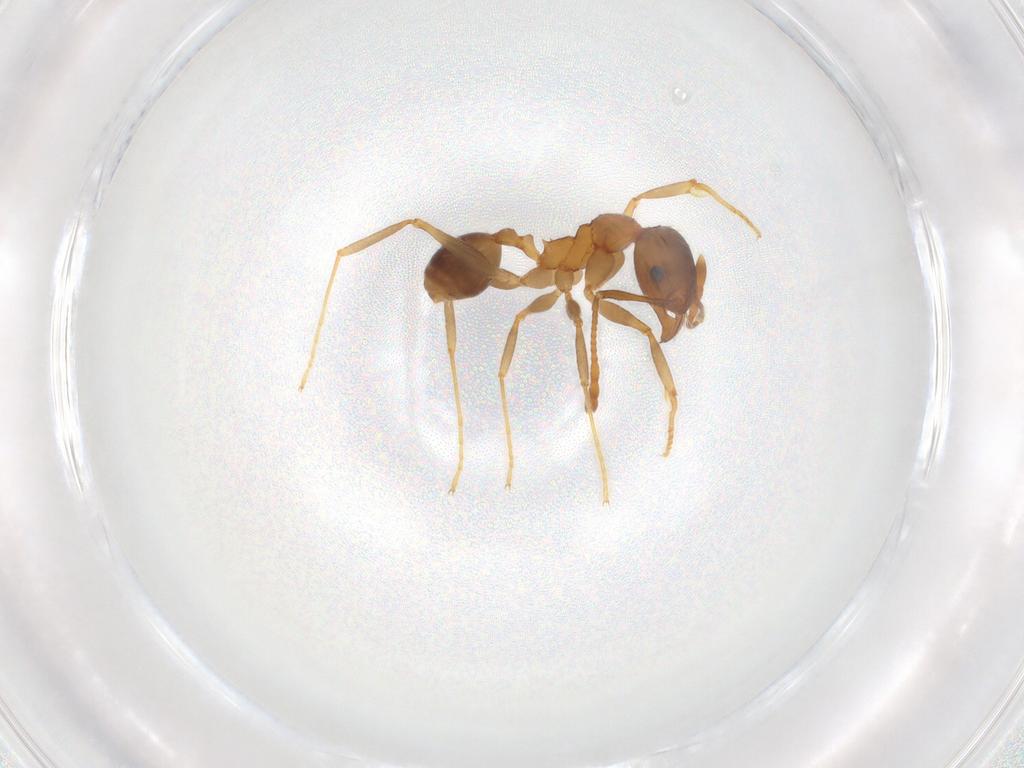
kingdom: Animalia
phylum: Arthropoda
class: Insecta
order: Hymenoptera
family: Formicidae
